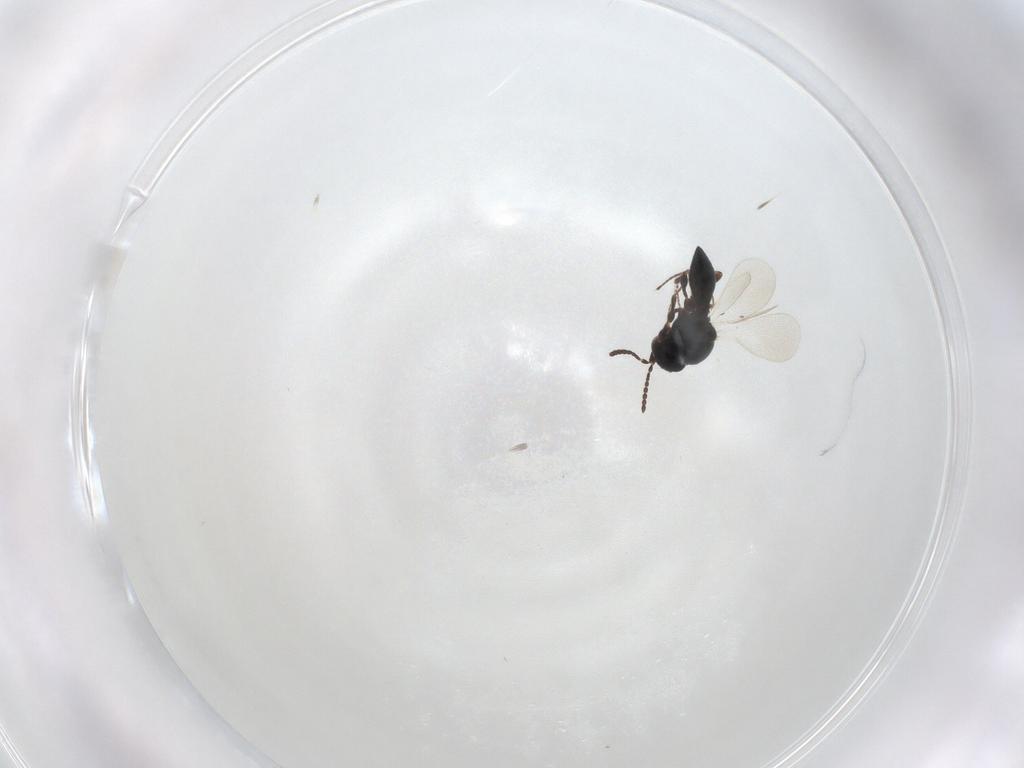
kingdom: Animalia
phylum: Arthropoda
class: Insecta
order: Hymenoptera
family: Platygastridae
